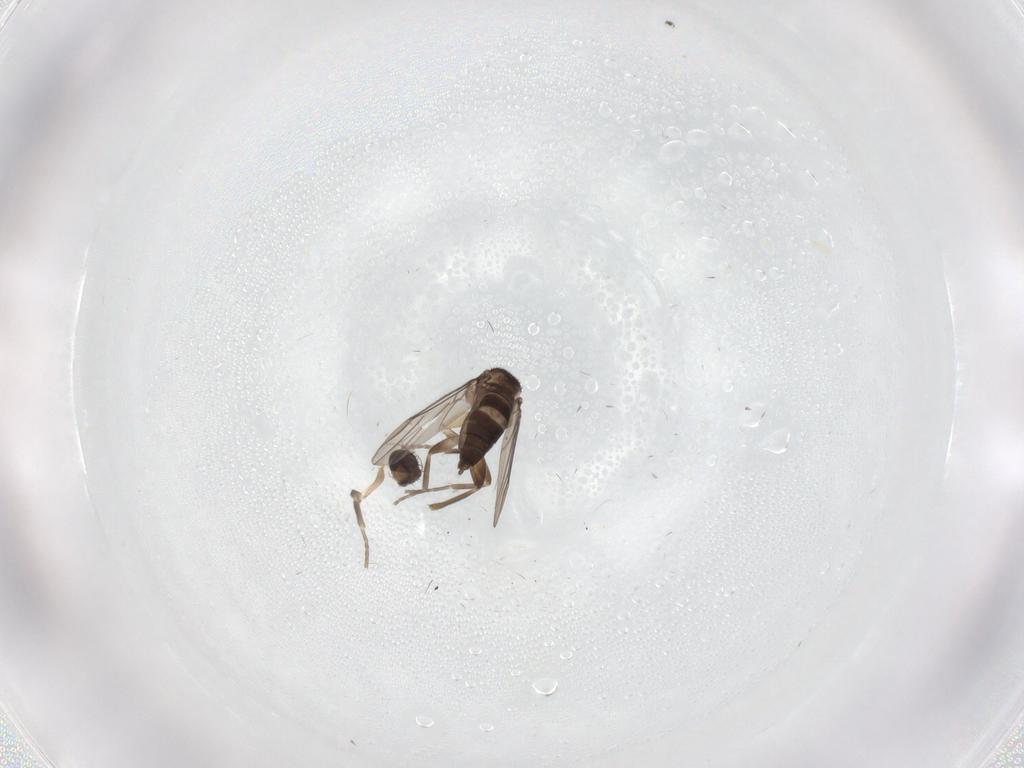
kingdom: Animalia
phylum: Arthropoda
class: Insecta
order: Diptera
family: Phoridae
